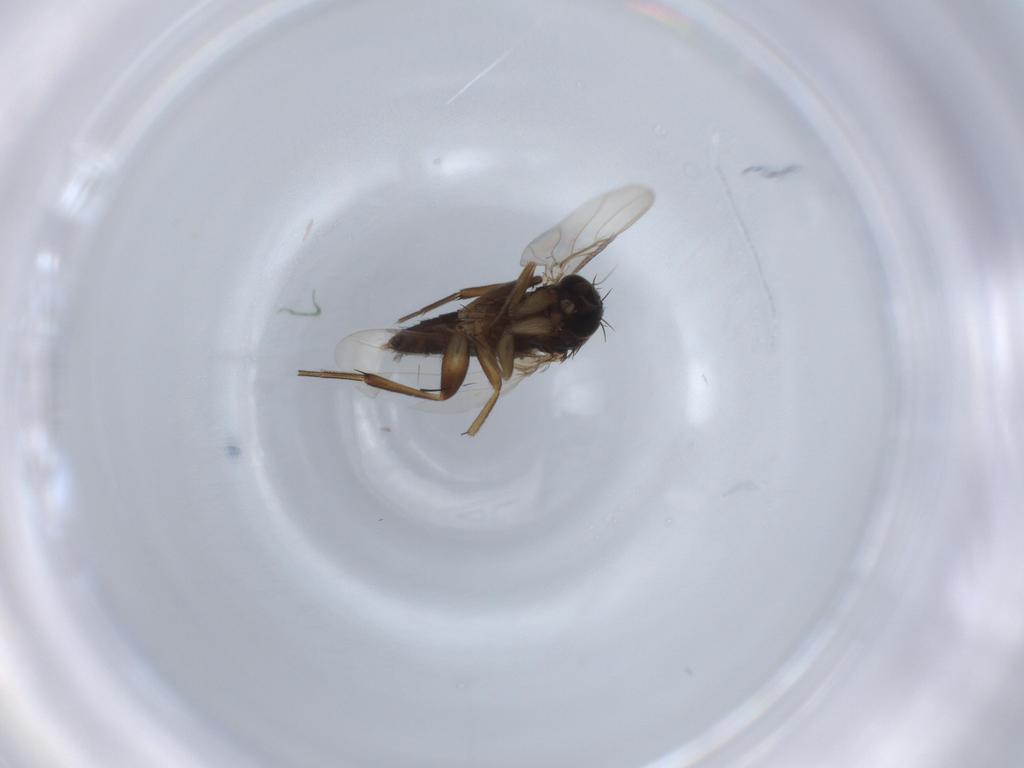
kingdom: Animalia
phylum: Arthropoda
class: Insecta
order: Diptera
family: Phoridae
